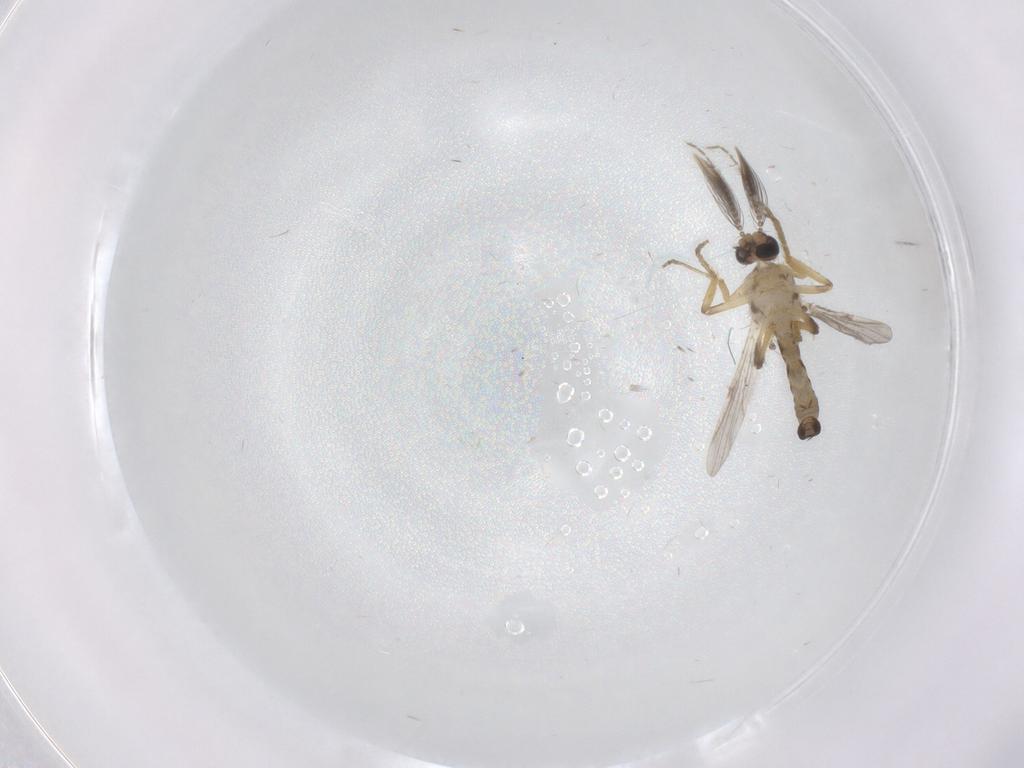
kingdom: Animalia
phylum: Arthropoda
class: Insecta
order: Diptera
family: Ceratopogonidae
